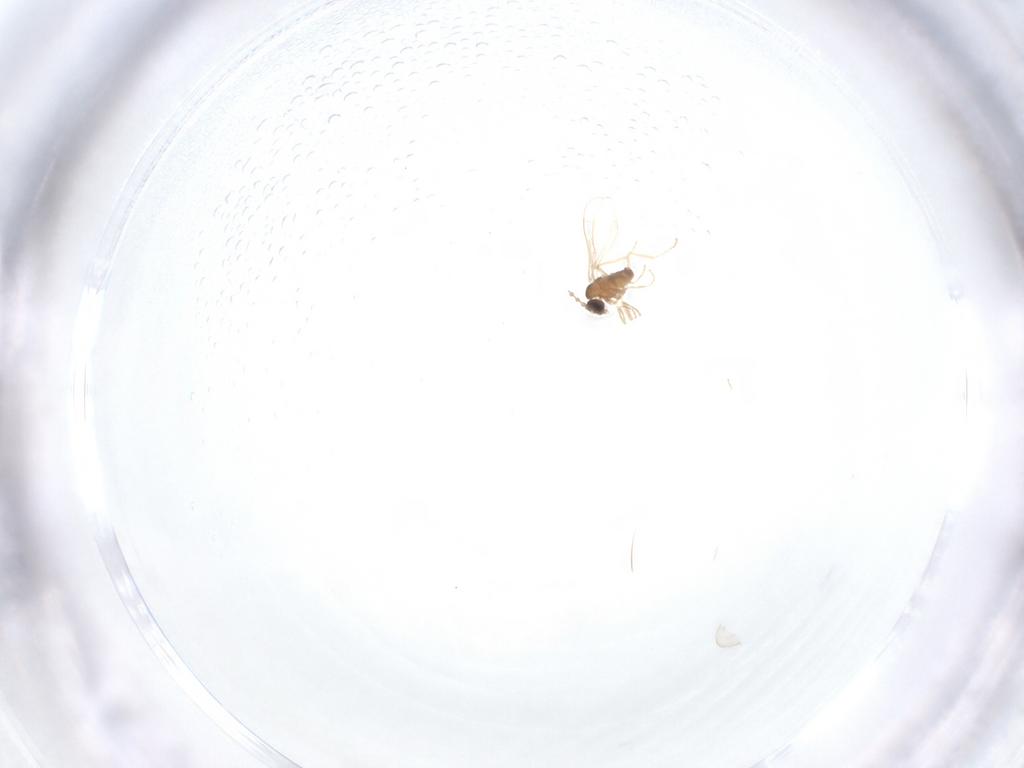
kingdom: Animalia
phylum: Arthropoda
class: Insecta
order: Diptera
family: Cecidomyiidae
